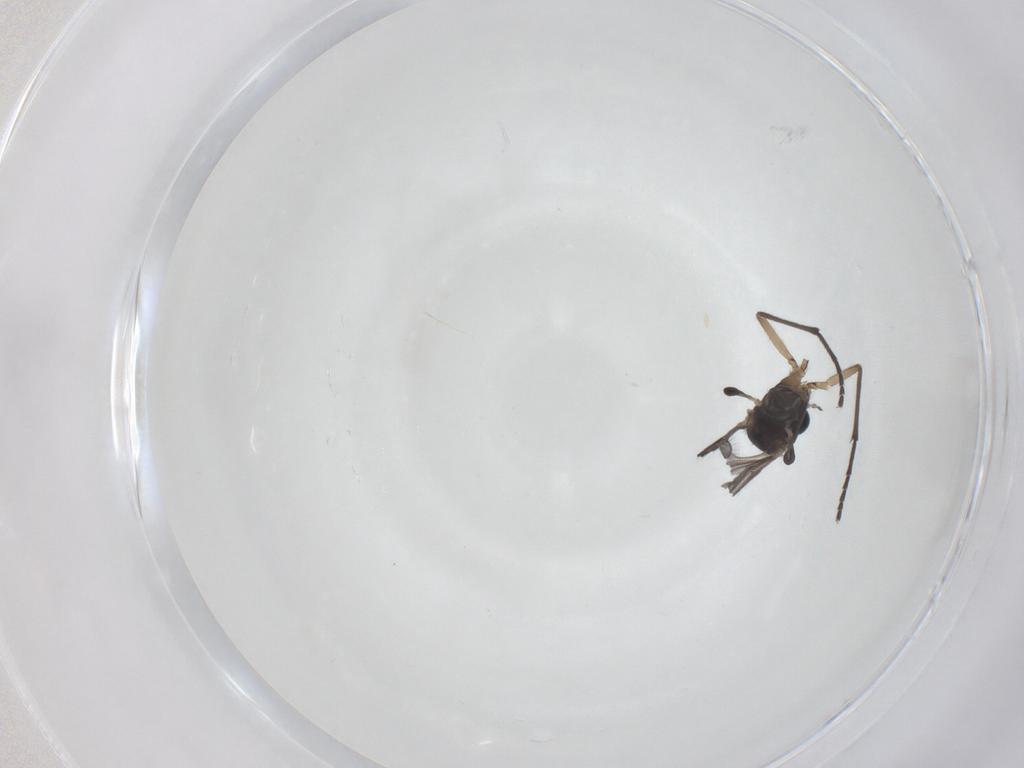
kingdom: Animalia
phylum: Arthropoda
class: Insecta
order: Diptera
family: Sciaridae
